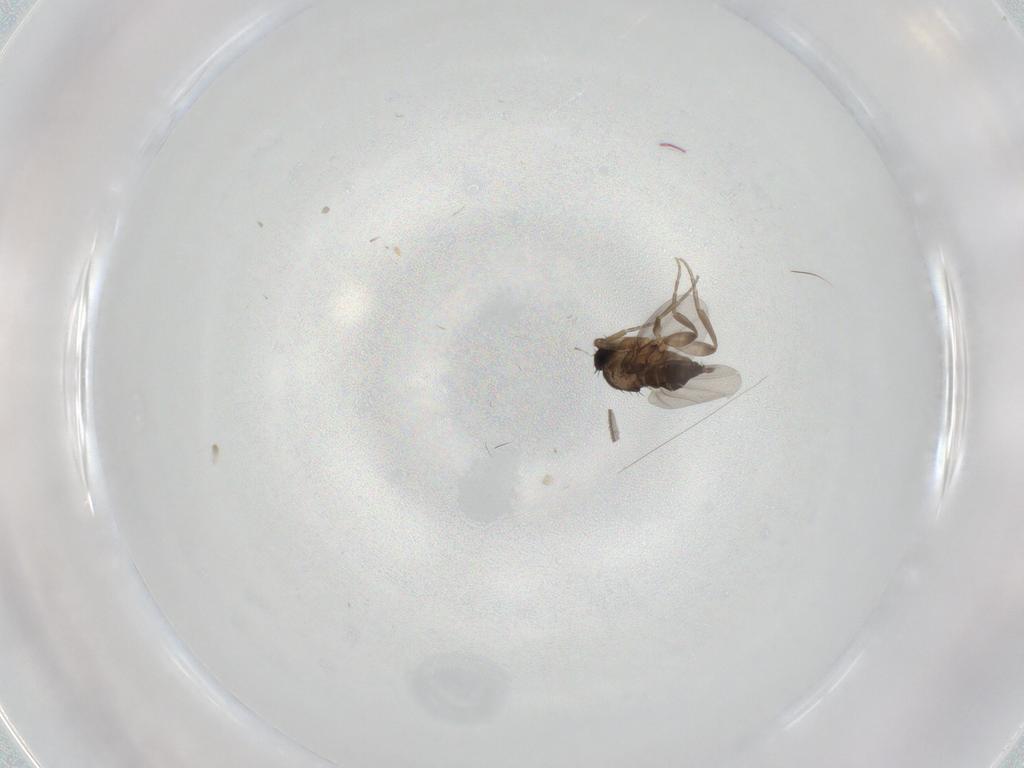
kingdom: Animalia
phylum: Arthropoda
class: Insecta
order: Diptera
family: Phoridae
